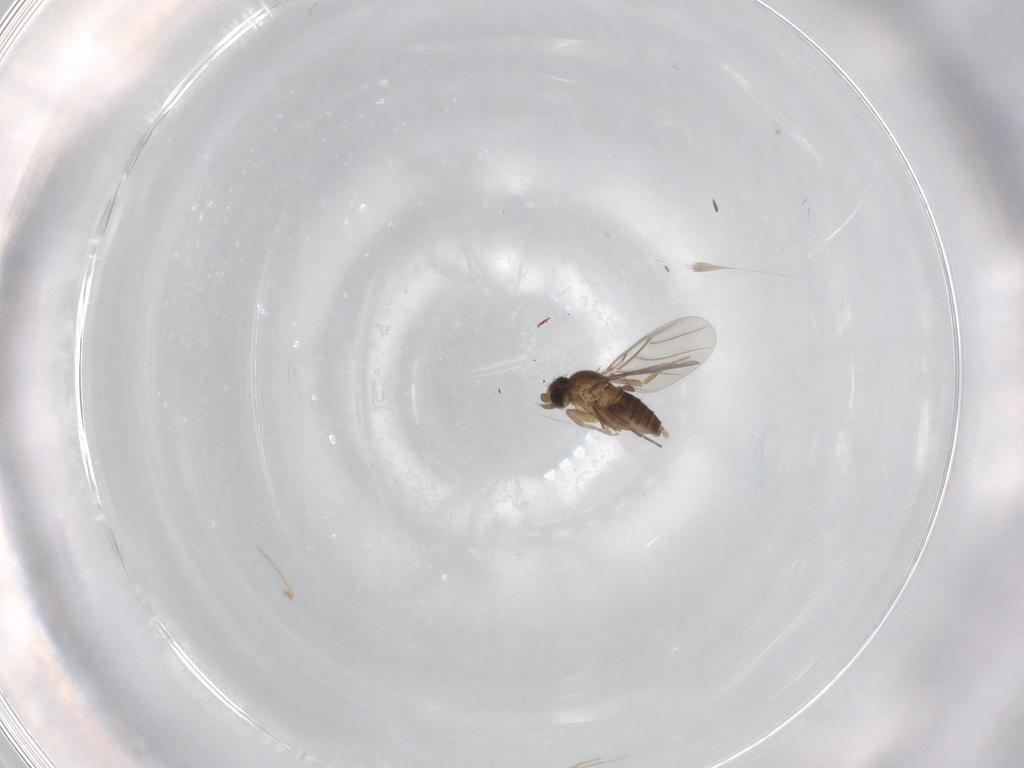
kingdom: Animalia
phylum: Arthropoda
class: Insecta
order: Diptera
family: Phoridae
